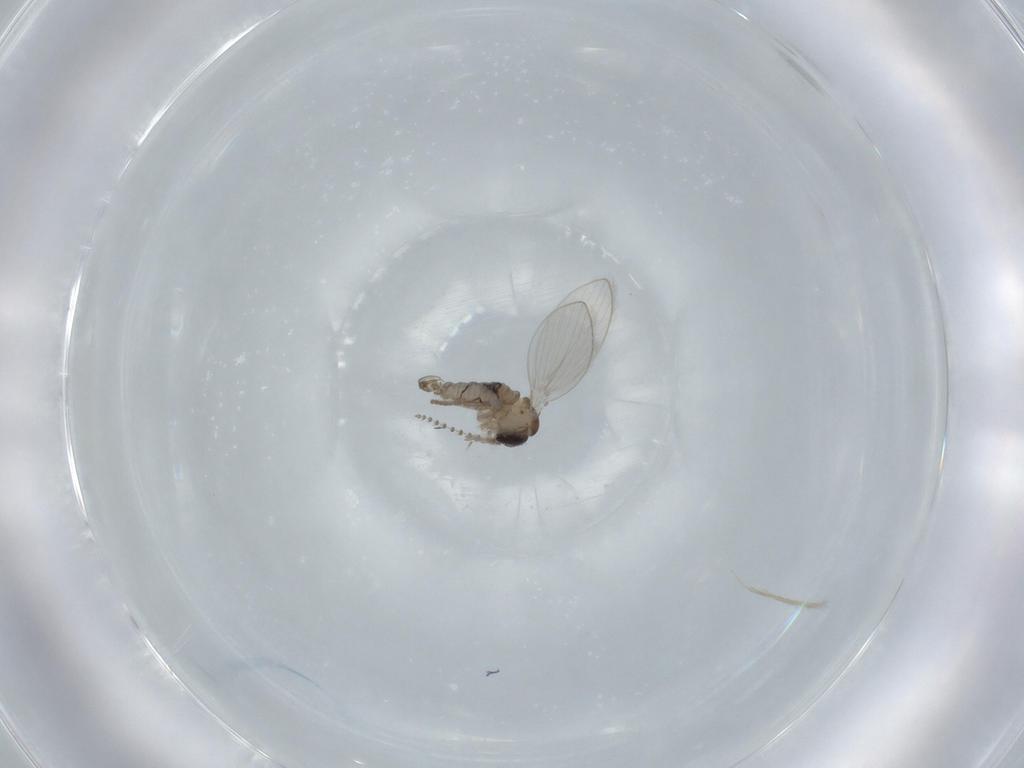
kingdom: Animalia
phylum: Arthropoda
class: Insecta
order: Diptera
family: Psychodidae
